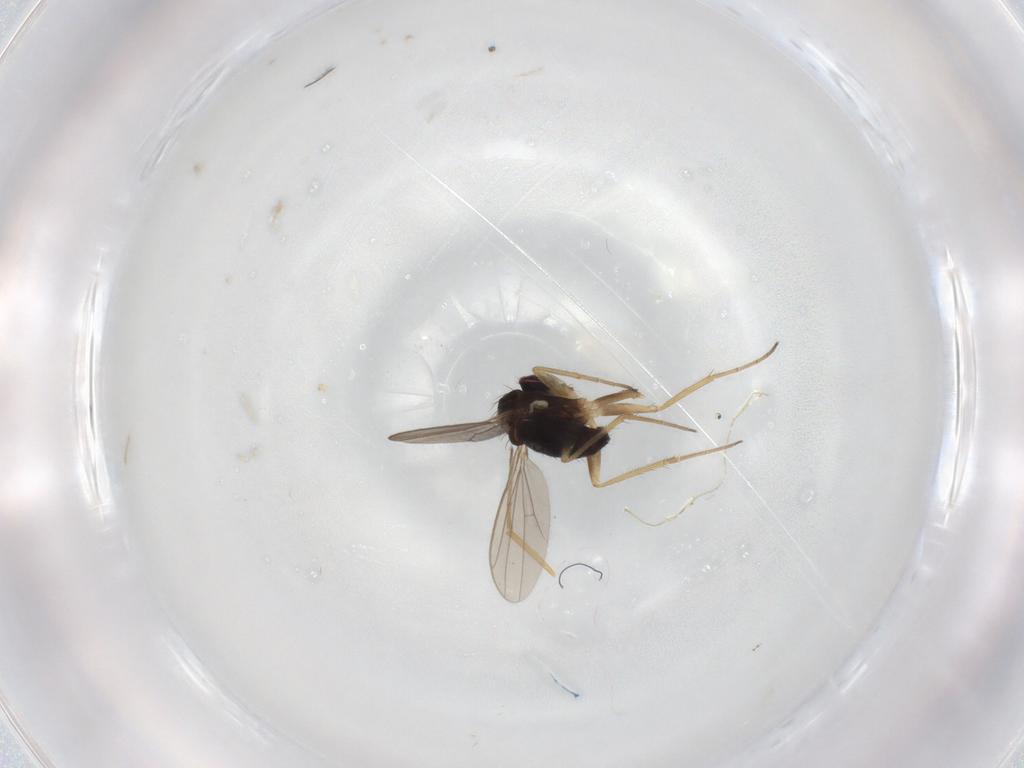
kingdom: Animalia
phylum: Arthropoda
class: Insecta
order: Diptera
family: Dolichopodidae
